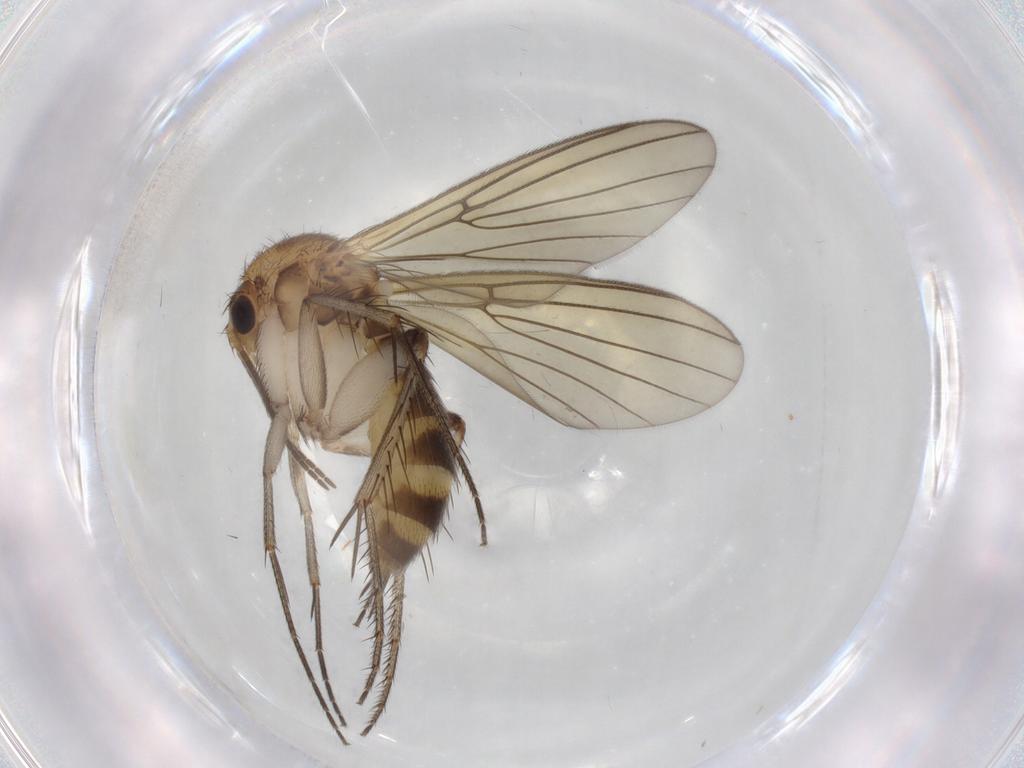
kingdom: Animalia
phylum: Arthropoda
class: Insecta
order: Diptera
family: Mycetophilidae
